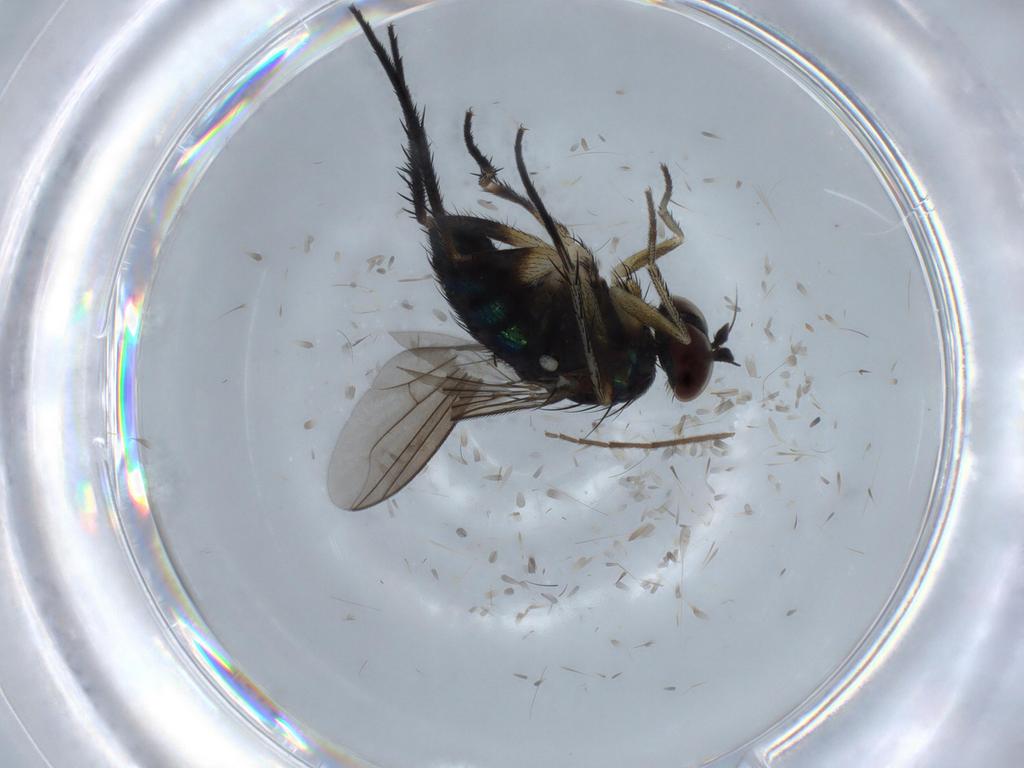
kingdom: Animalia
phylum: Arthropoda
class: Insecta
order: Diptera
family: Dolichopodidae
